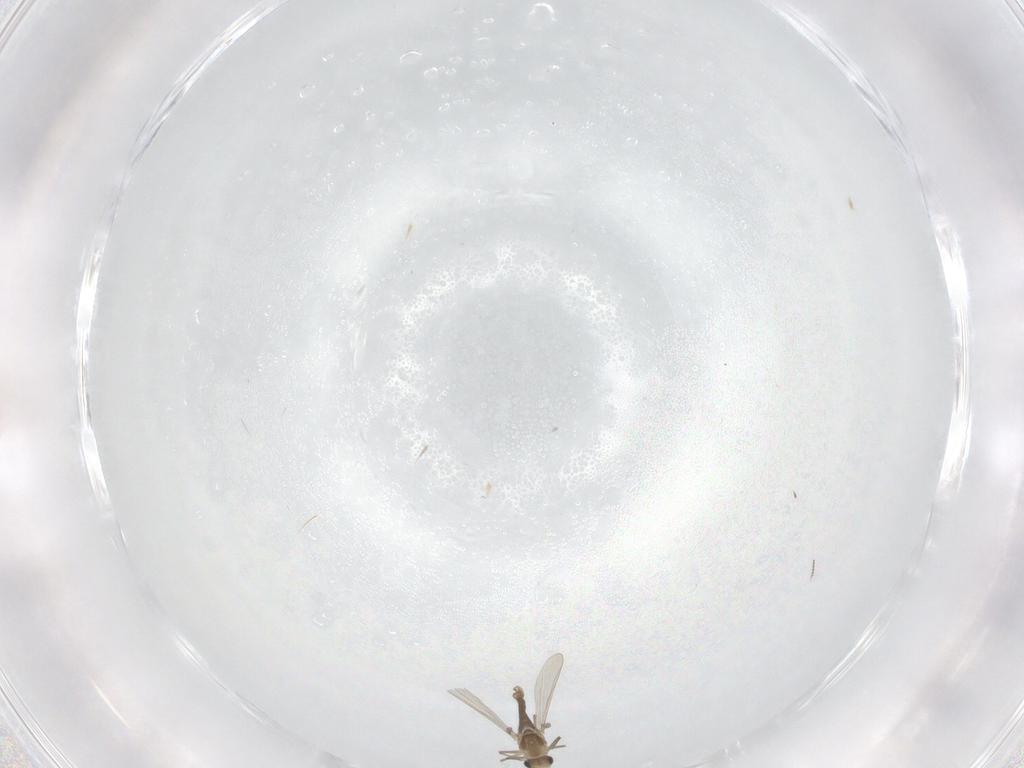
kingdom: Animalia
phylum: Arthropoda
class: Insecta
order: Diptera
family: Chironomidae
